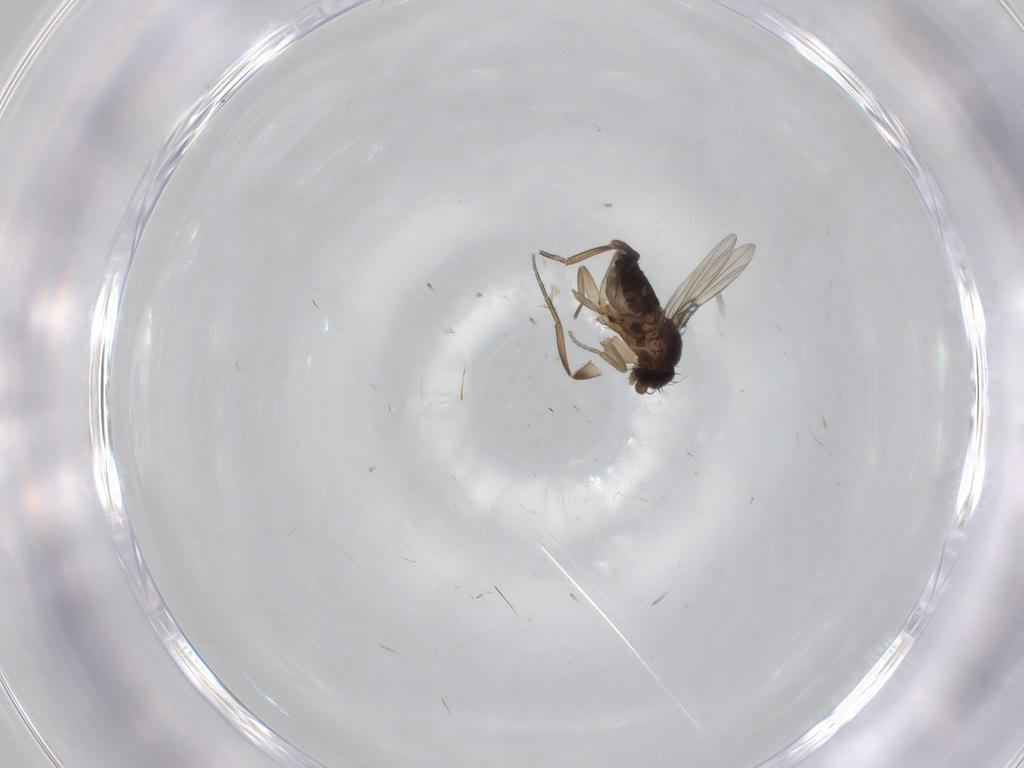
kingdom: Animalia
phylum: Arthropoda
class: Insecta
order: Diptera
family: Phoridae
